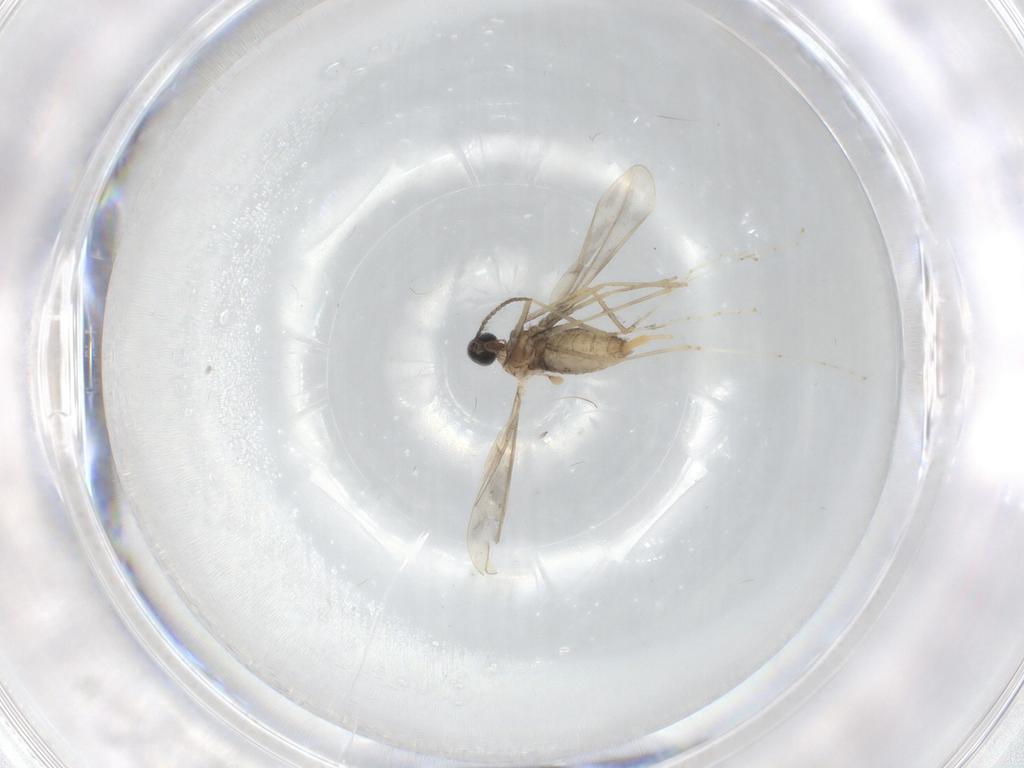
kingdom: Animalia
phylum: Arthropoda
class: Insecta
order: Diptera
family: Cecidomyiidae
